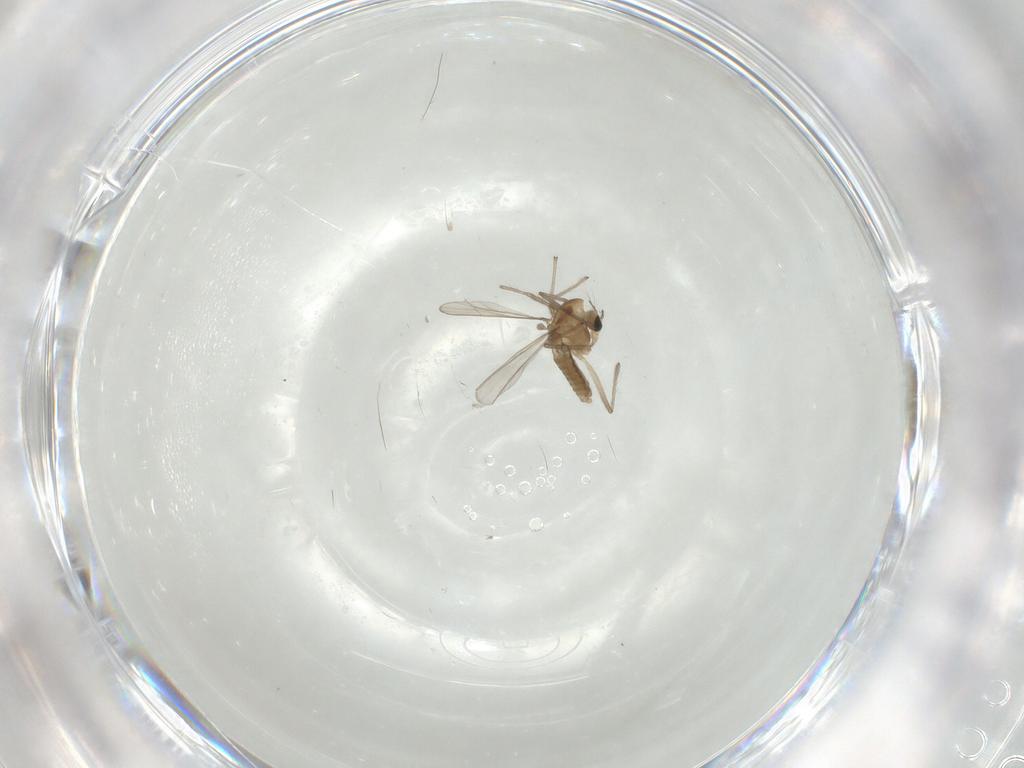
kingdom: Animalia
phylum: Arthropoda
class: Insecta
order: Diptera
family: Chironomidae
